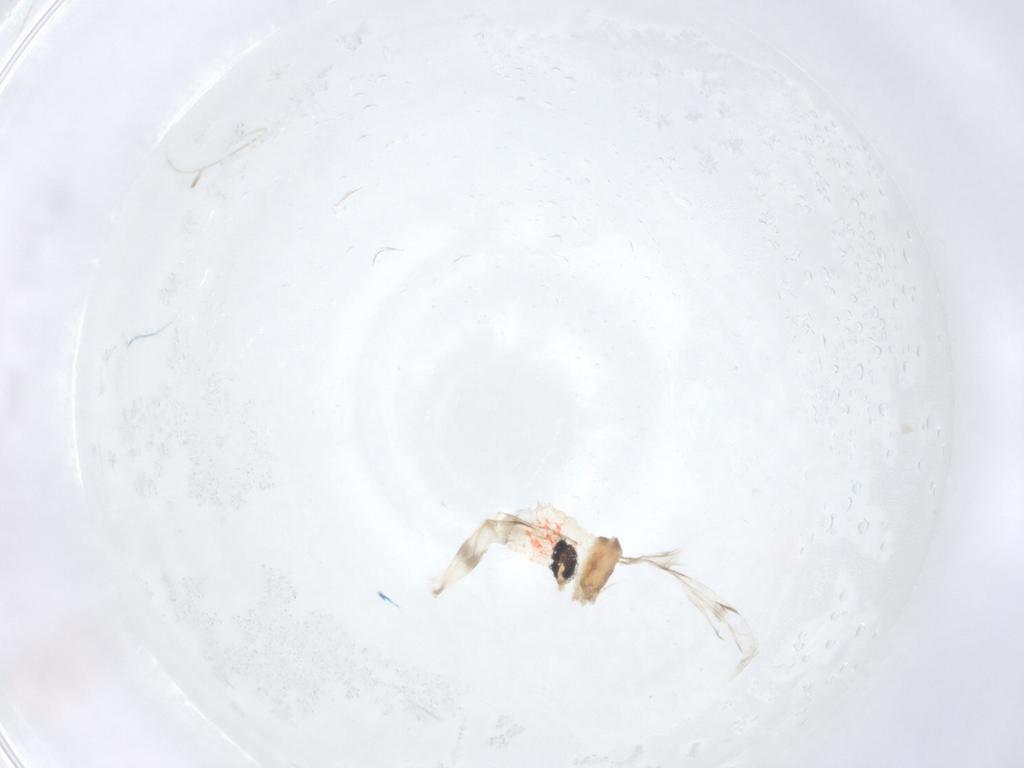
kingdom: Animalia
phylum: Arthropoda
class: Insecta
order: Diptera
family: Cecidomyiidae
